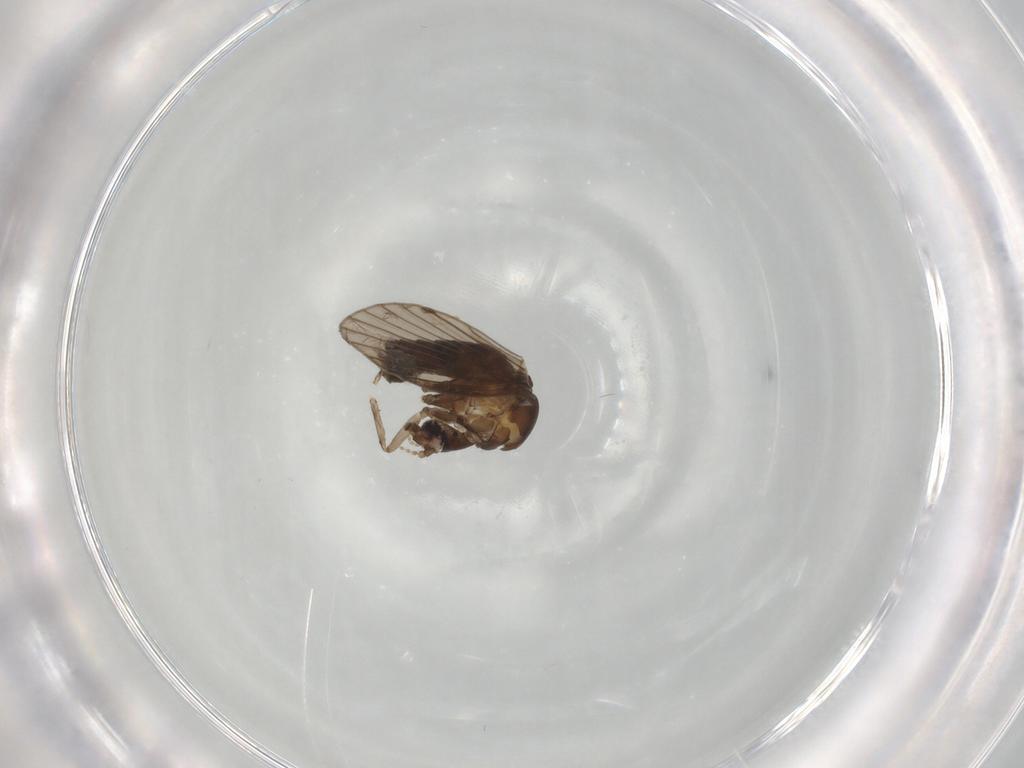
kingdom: Animalia
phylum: Arthropoda
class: Insecta
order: Diptera
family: Psychodidae
